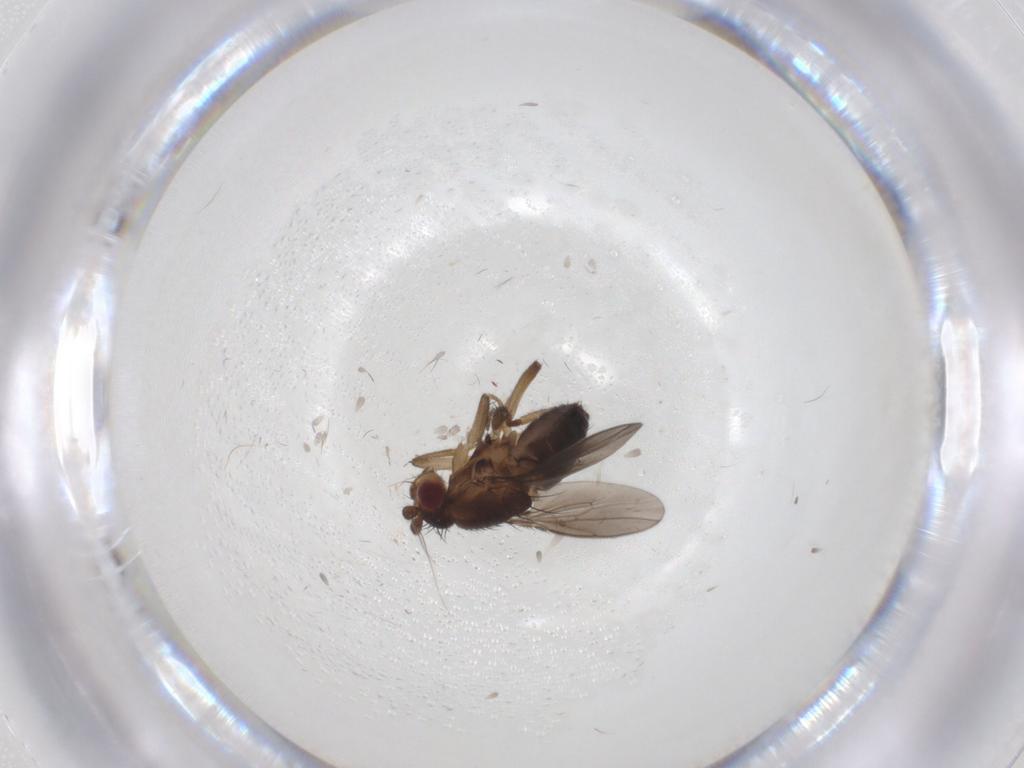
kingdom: Animalia
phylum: Arthropoda
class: Insecta
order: Diptera
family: Sphaeroceridae
